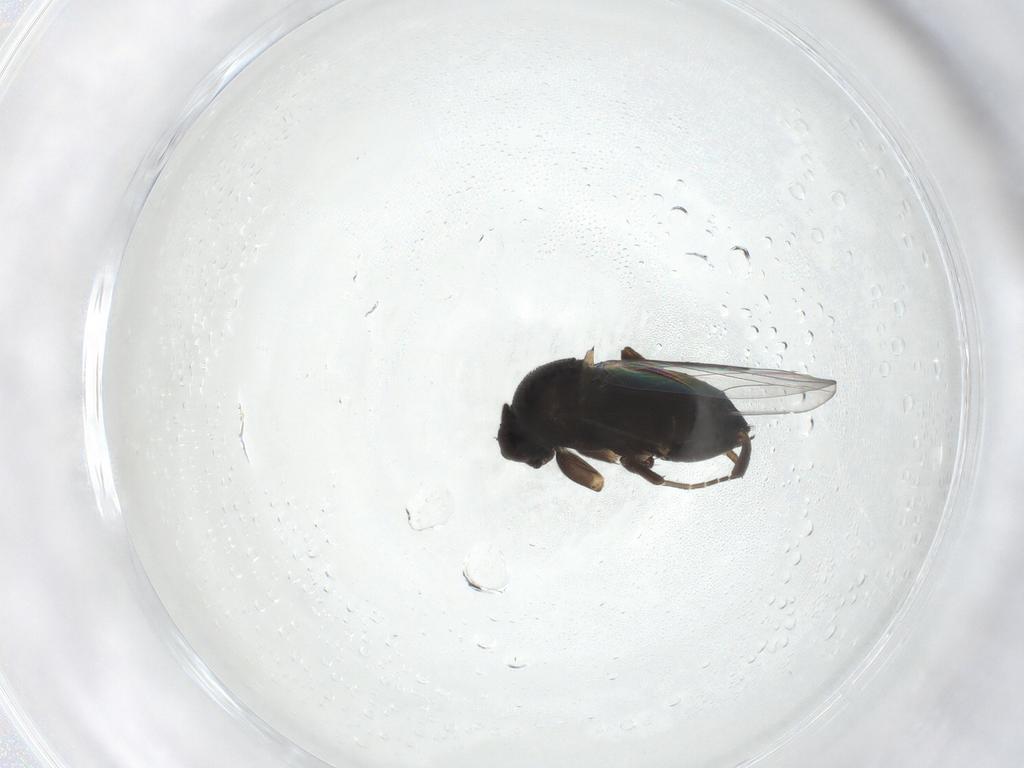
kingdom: Animalia
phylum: Arthropoda
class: Insecta
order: Diptera
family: Phoridae
